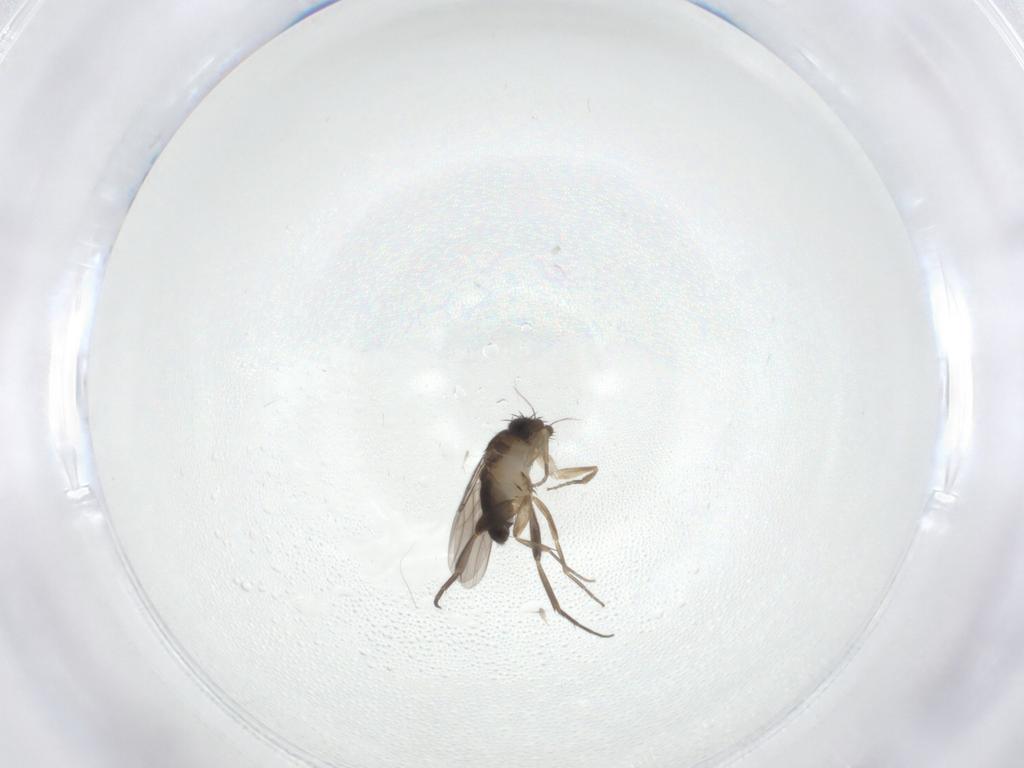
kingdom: Animalia
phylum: Arthropoda
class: Insecta
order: Diptera
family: Phoridae
